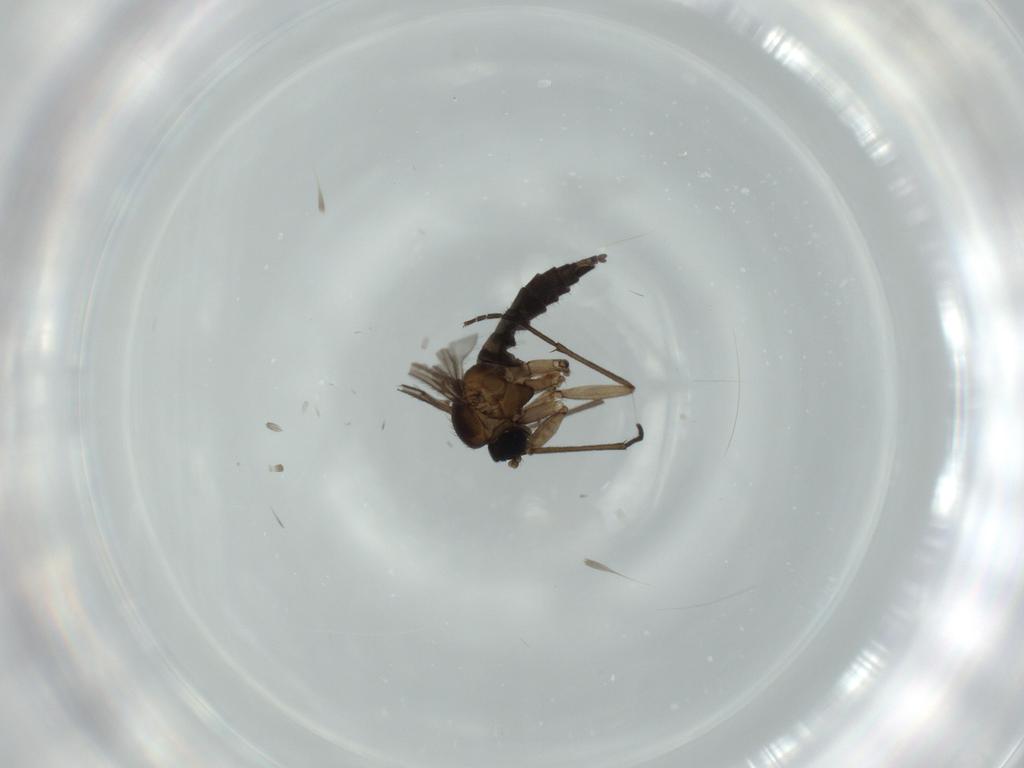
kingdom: Animalia
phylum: Arthropoda
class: Insecta
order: Diptera
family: Sciaridae
